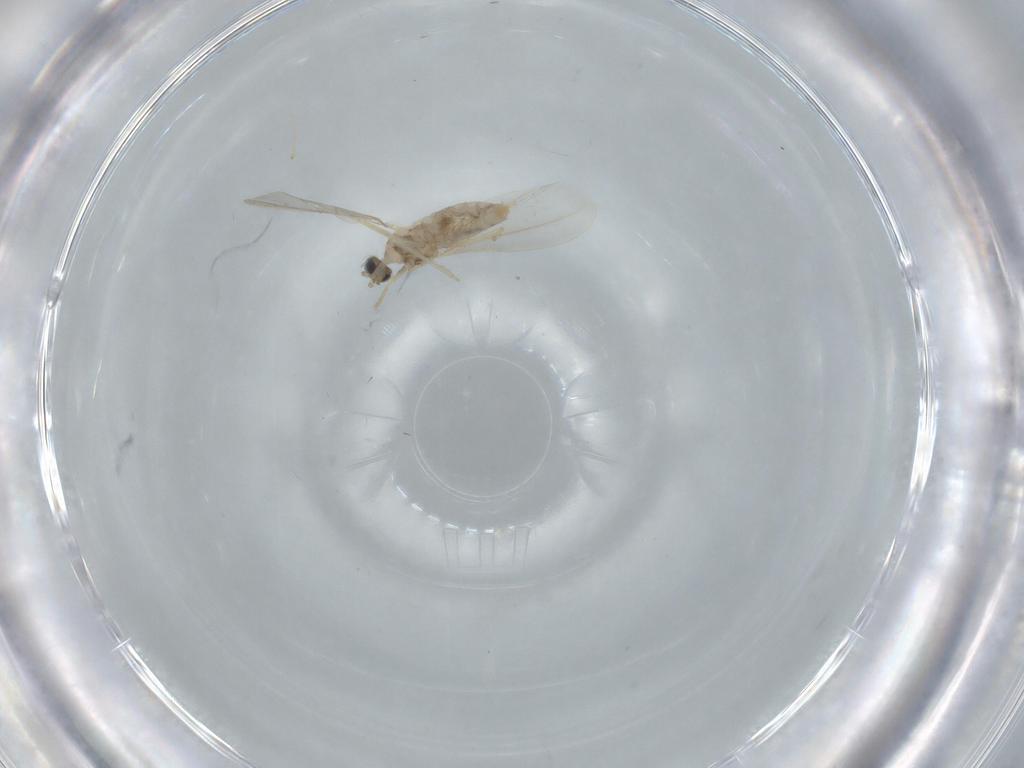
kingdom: Animalia
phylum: Arthropoda
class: Insecta
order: Diptera
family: Cecidomyiidae
